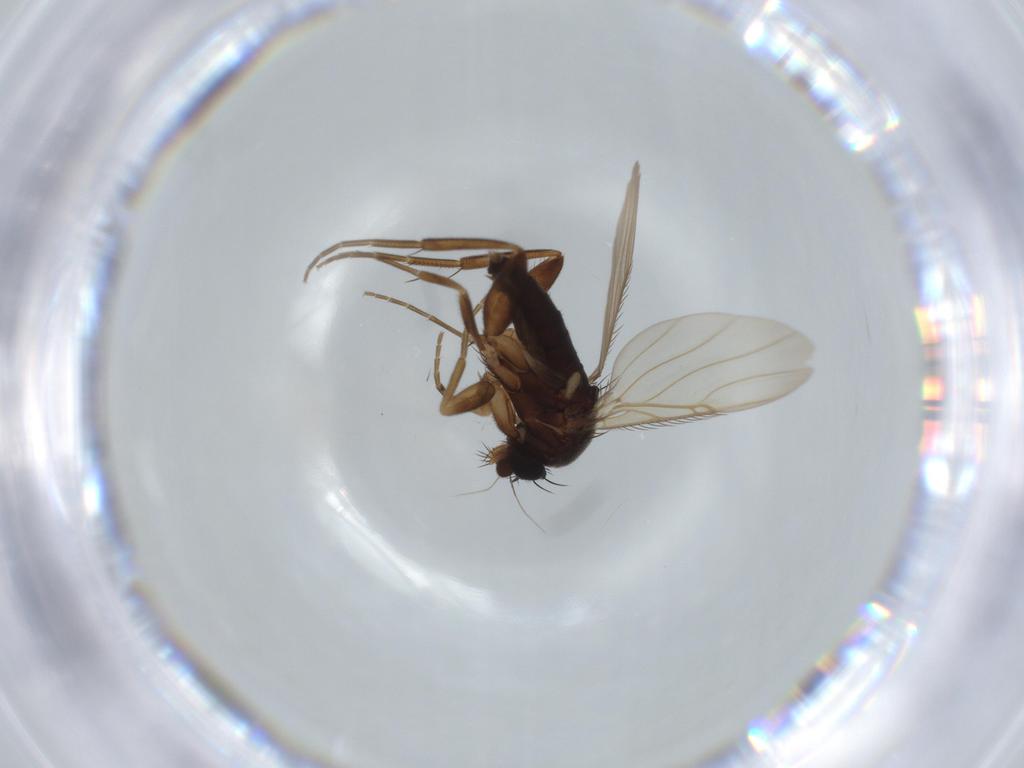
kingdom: Animalia
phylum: Arthropoda
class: Insecta
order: Diptera
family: Phoridae
